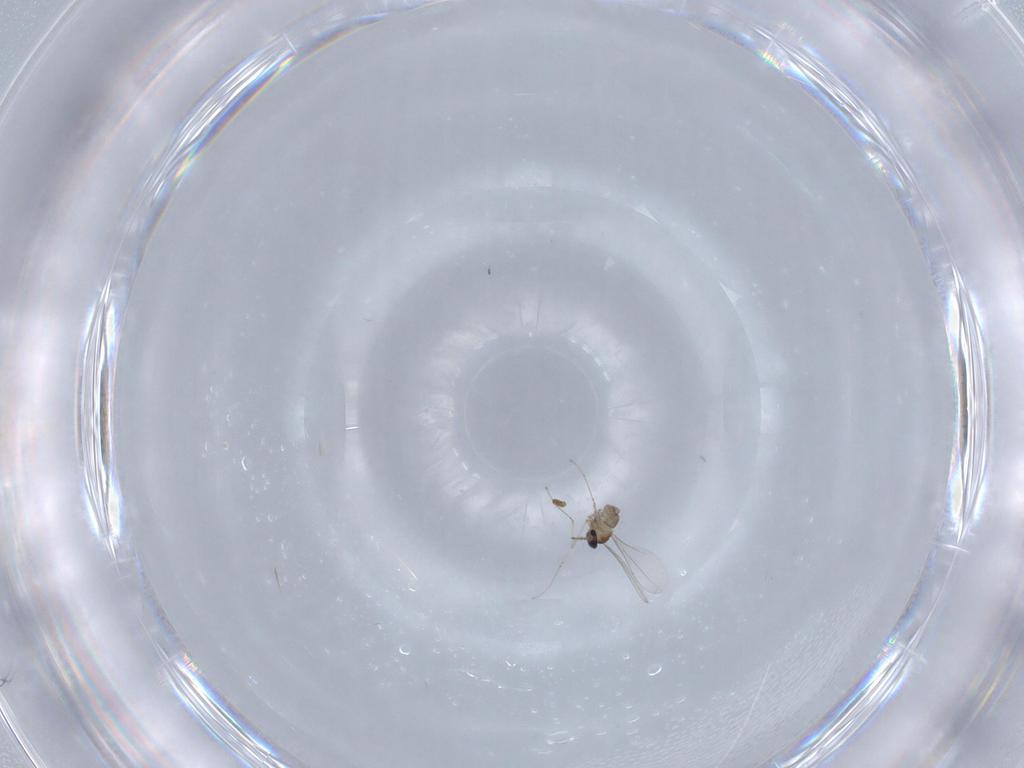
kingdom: Animalia
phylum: Arthropoda
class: Insecta
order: Diptera
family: Cecidomyiidae
